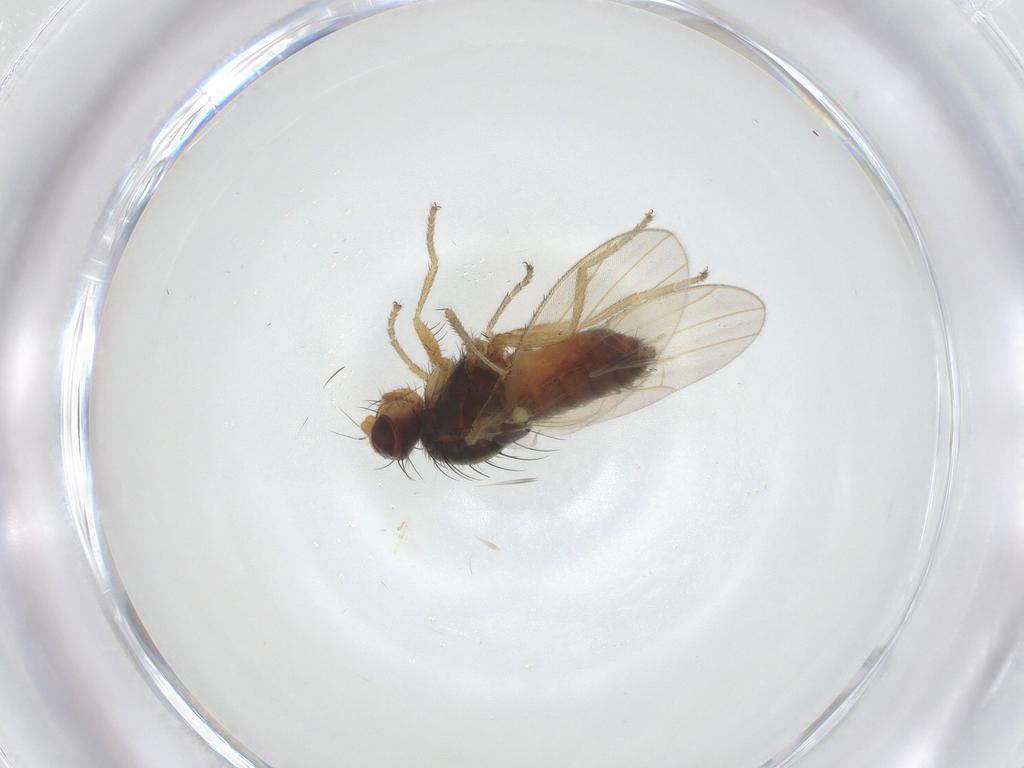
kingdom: Animalia
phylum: Arthropoda
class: Insecta
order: Diptera
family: Heleomyzidae
